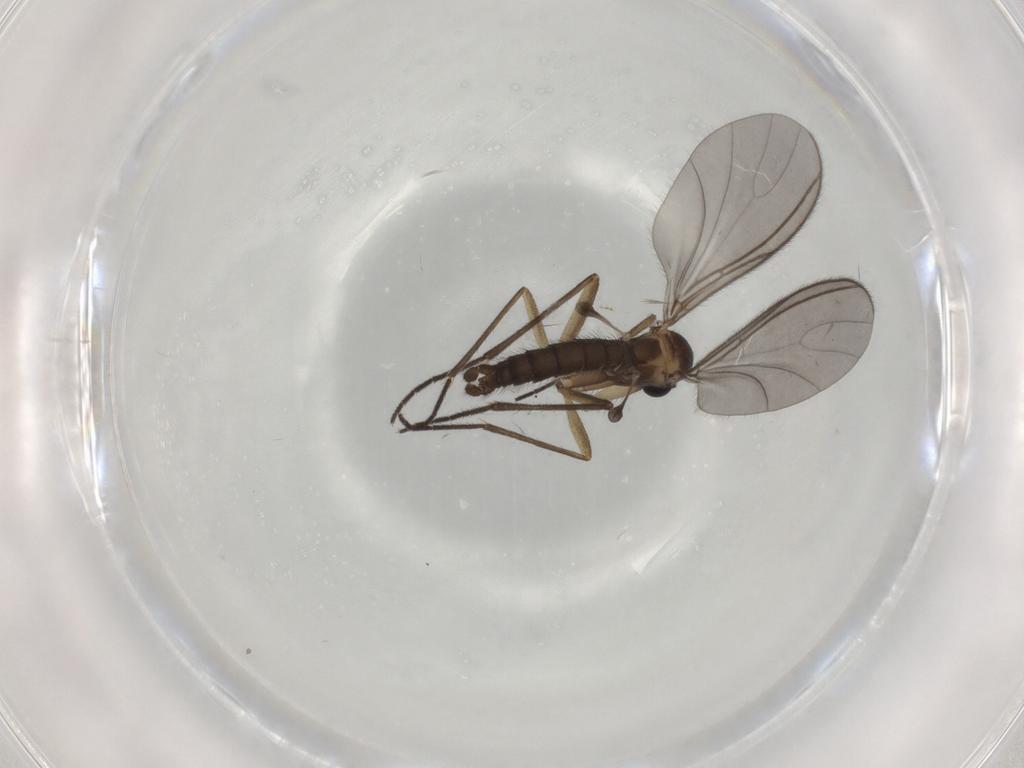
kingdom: Animalia
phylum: Arthropoda
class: Insecta
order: Diptera
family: Sciaridae
